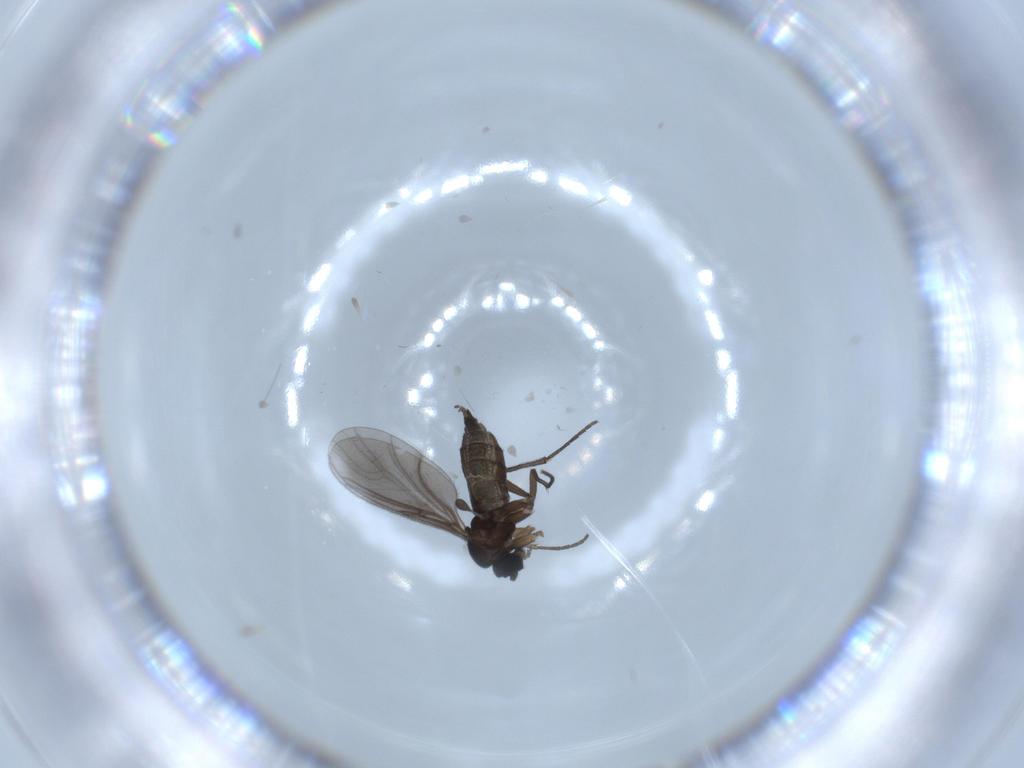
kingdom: Animalia
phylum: Arthropoda
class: Insecta
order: Diptera
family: Sciaridae
